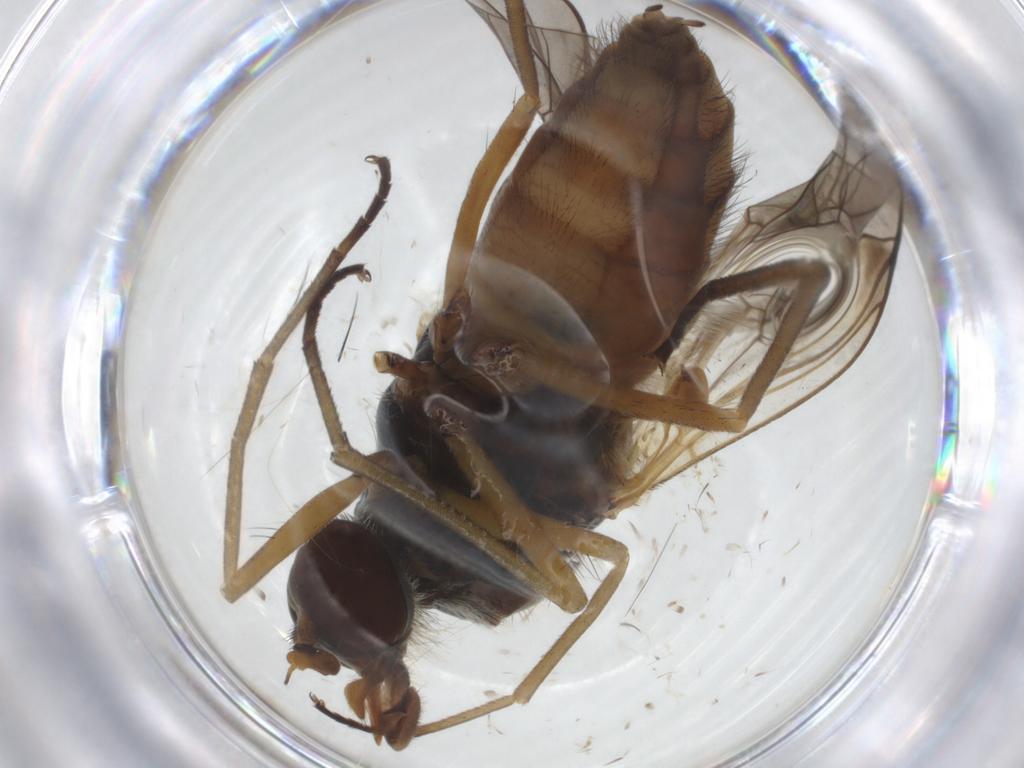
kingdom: Animalia
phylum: Arthropoda
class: Insecta
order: Diptera
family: Rhagionidae
